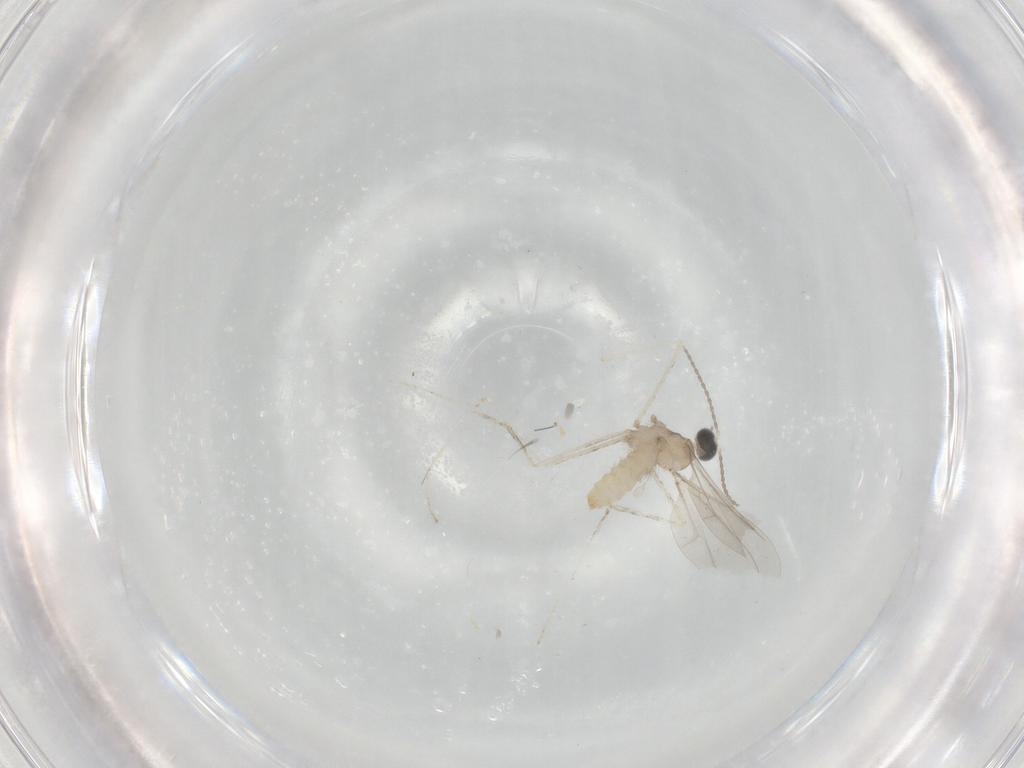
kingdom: Animalia
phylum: Arthropoda
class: Insecta
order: Diptera
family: Cecidomyiidae
